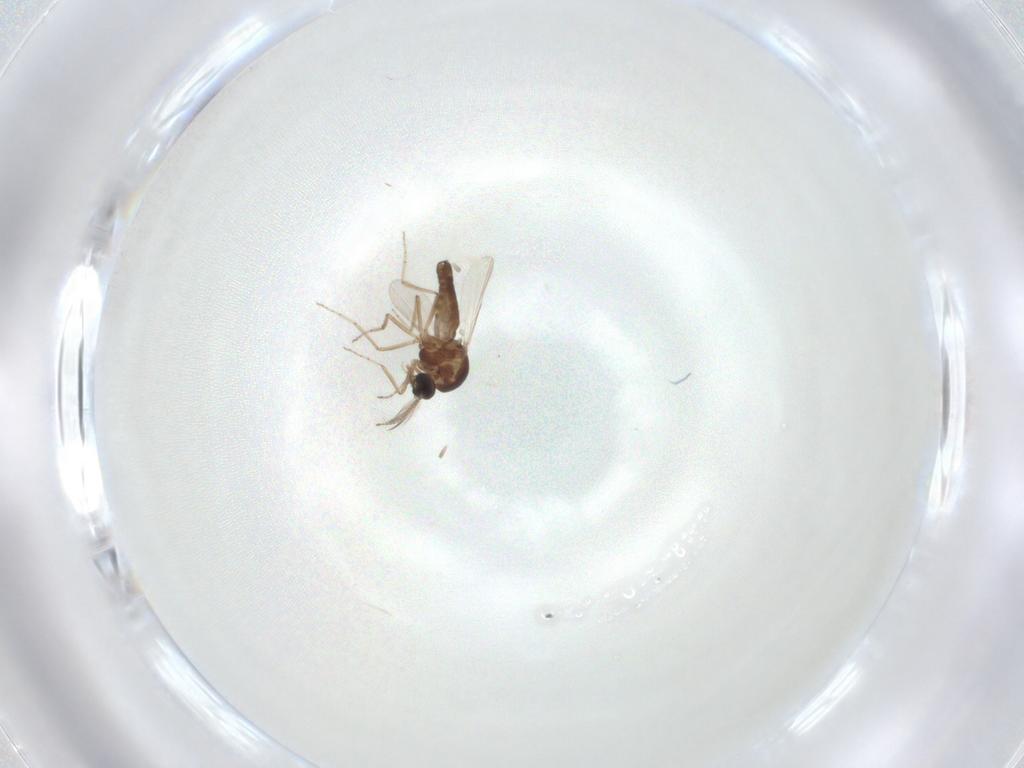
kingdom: Animalia
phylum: Arthropoda
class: Insecta
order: Diptera
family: Ceratopogonidae
